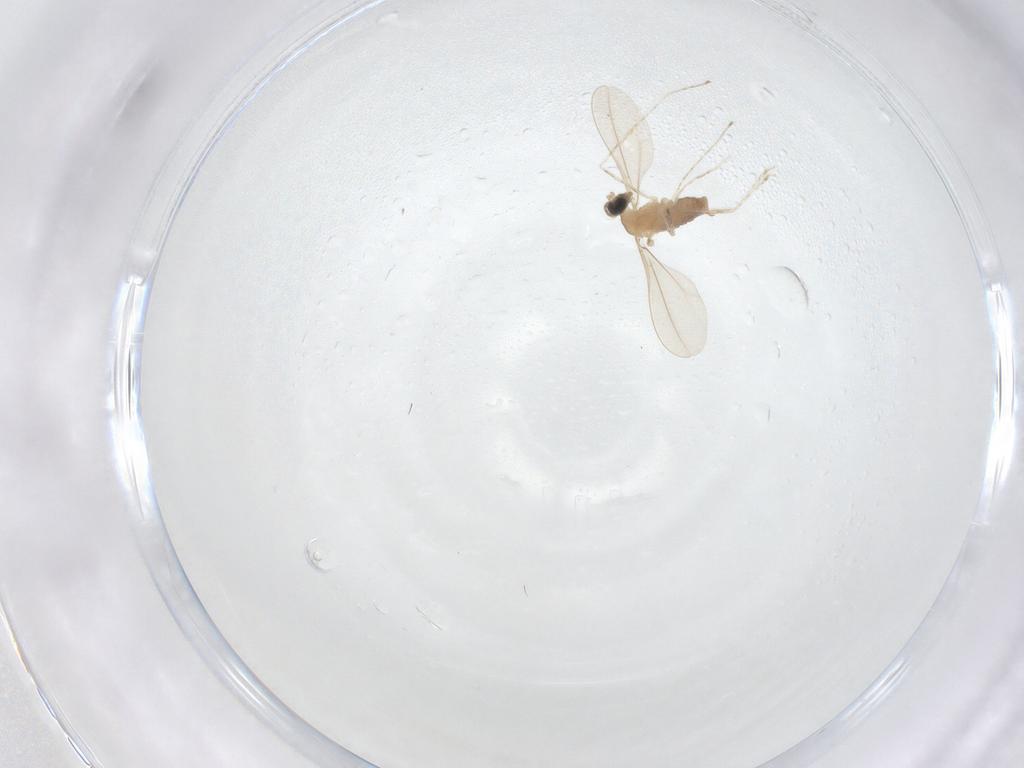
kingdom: Animalia
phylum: Arthropoda
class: Insecta
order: Diptera
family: Cecidomyiidae
